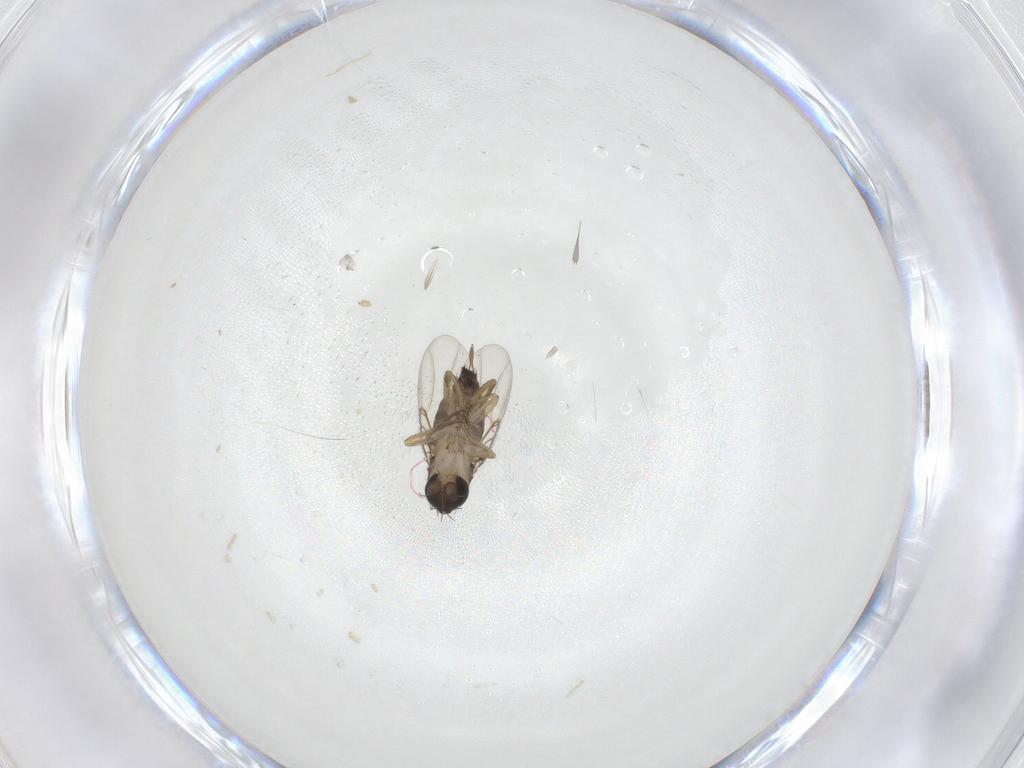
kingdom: Animalia
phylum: Arthropoda
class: Insecta
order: Diptera
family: Phoridae
